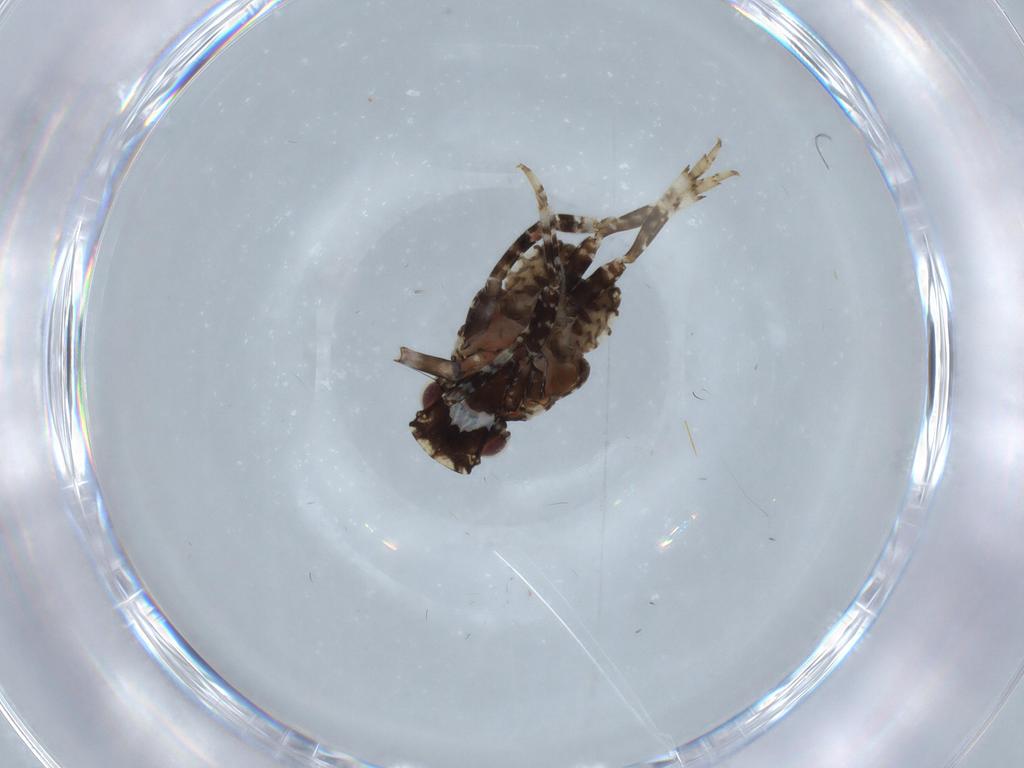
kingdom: Animalia
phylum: Arthropoda
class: Insecta
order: Hemiptera
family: Fulgoridae
